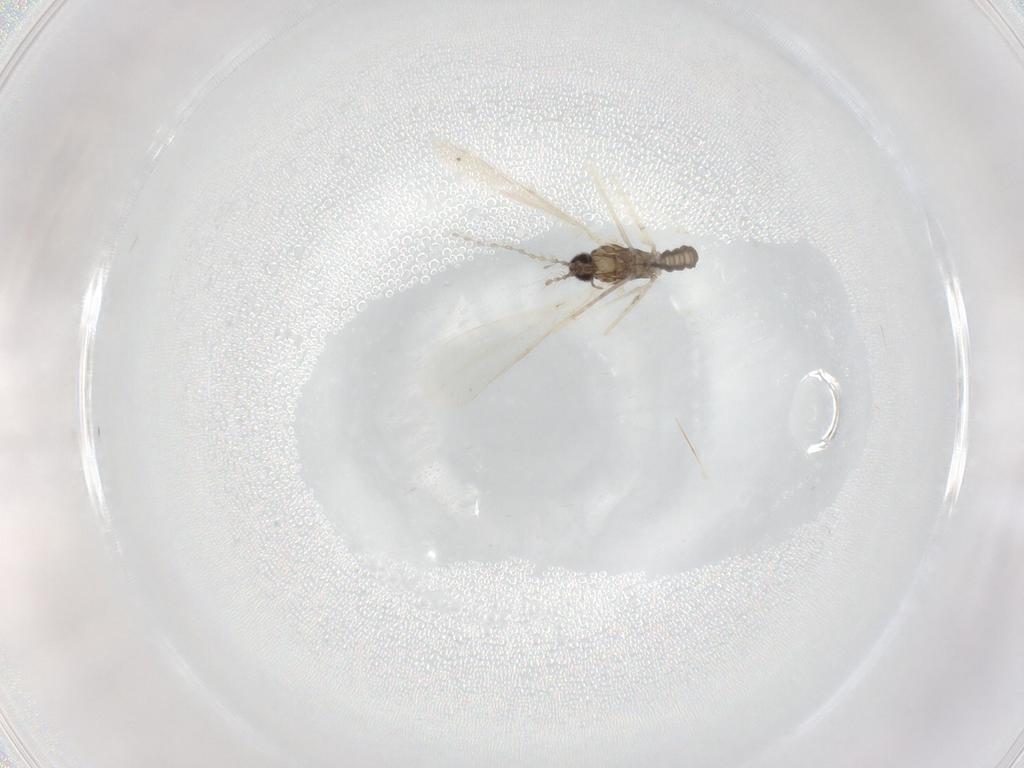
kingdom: Animalia
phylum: Arthropoda
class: Insecta
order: Diptera
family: Cecidomyiidae
